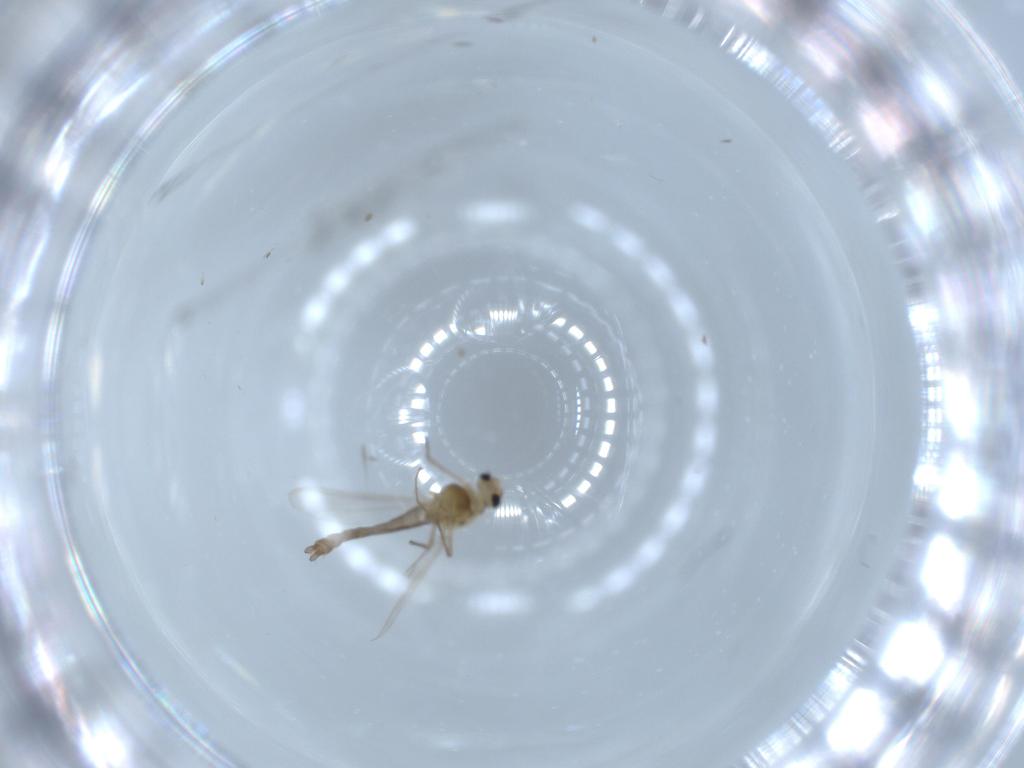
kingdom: Animalia
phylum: Arthropoda
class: Insecta
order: Diptera
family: Chironomidae
